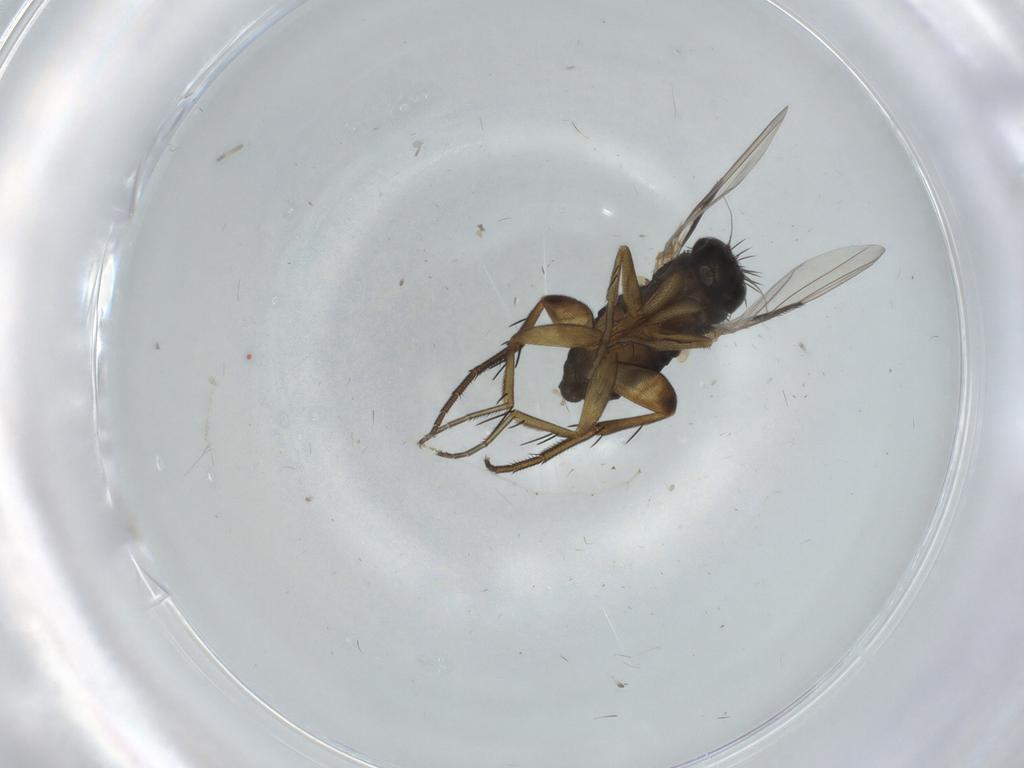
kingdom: Animalia
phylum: Arthropoda
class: Insecta
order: Diptera
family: Phoridae
